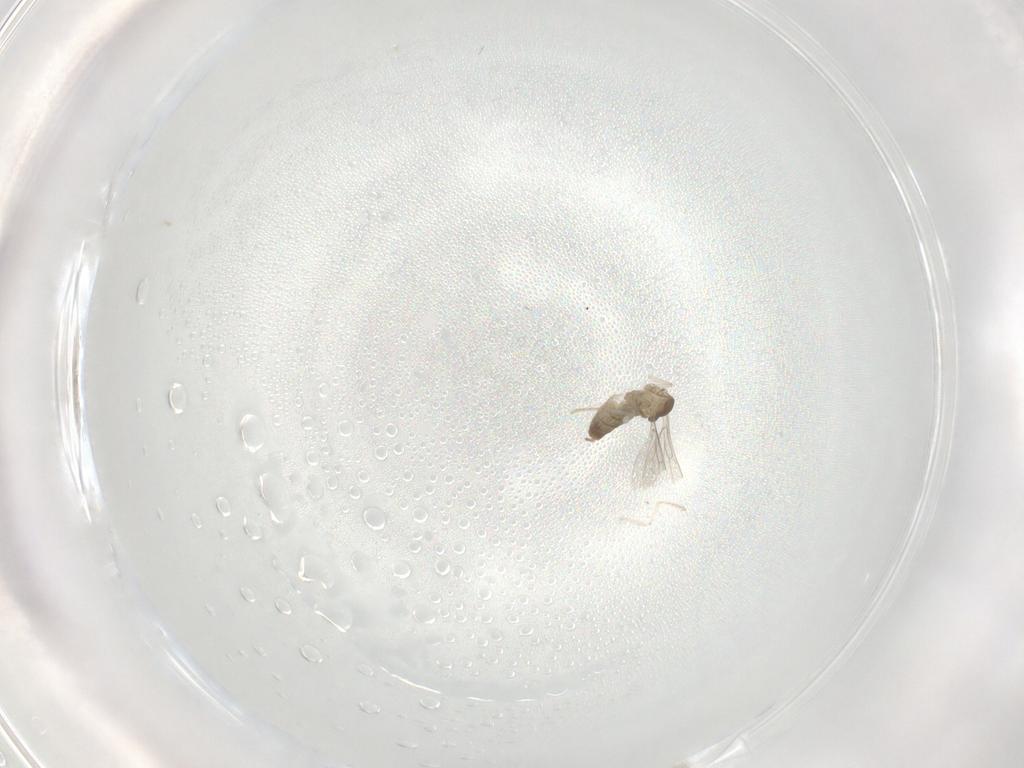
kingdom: Animalia
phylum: Arthropoda
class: Insecta
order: Diptera
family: Cecidomyiidae
